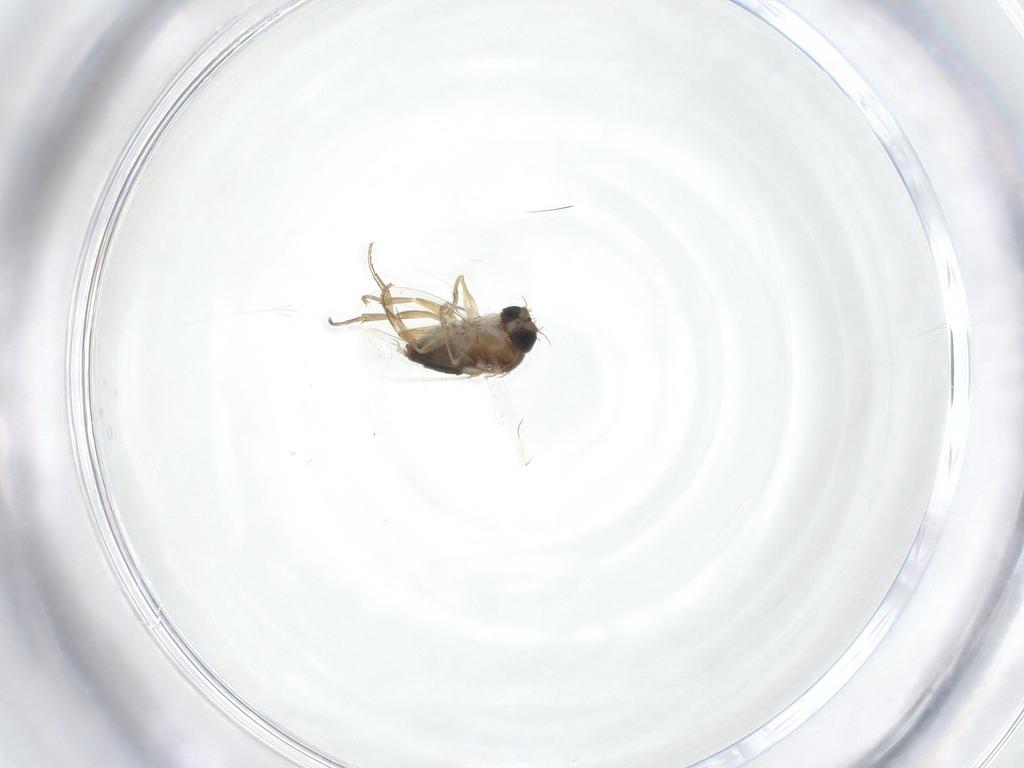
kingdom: Animalia
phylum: Arthropoda
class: Insecta
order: Diptera
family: Phoridae
